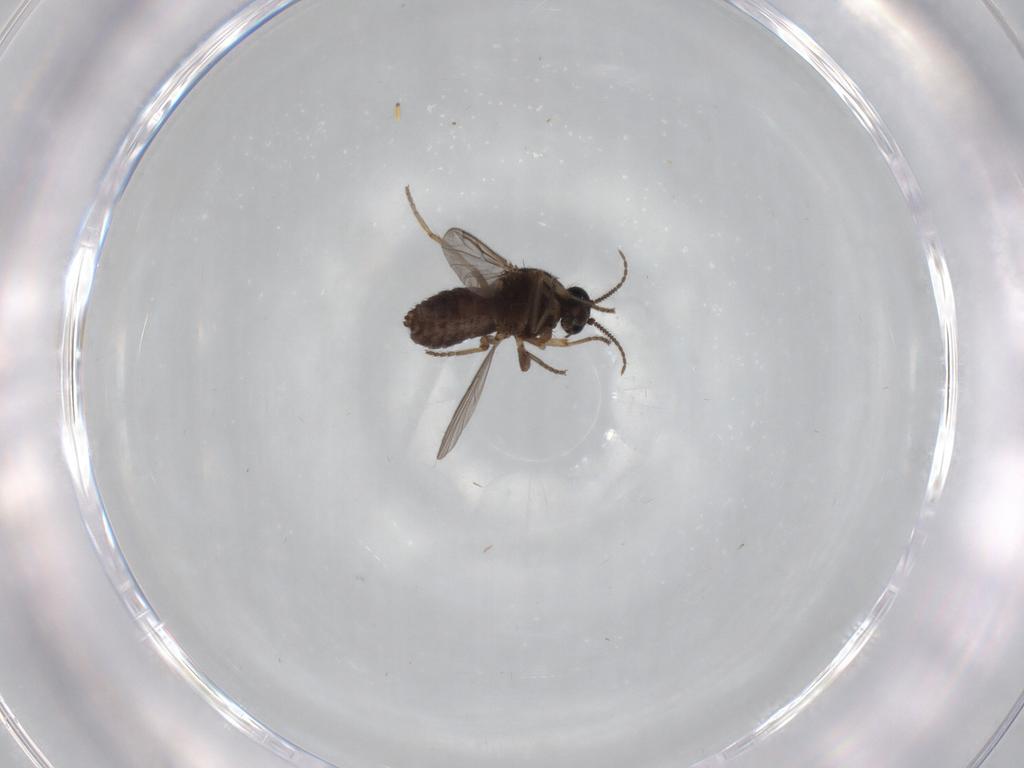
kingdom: Animalia
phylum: Arthropoda
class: Insecta
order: Diptera
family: Ceratopogonidae
